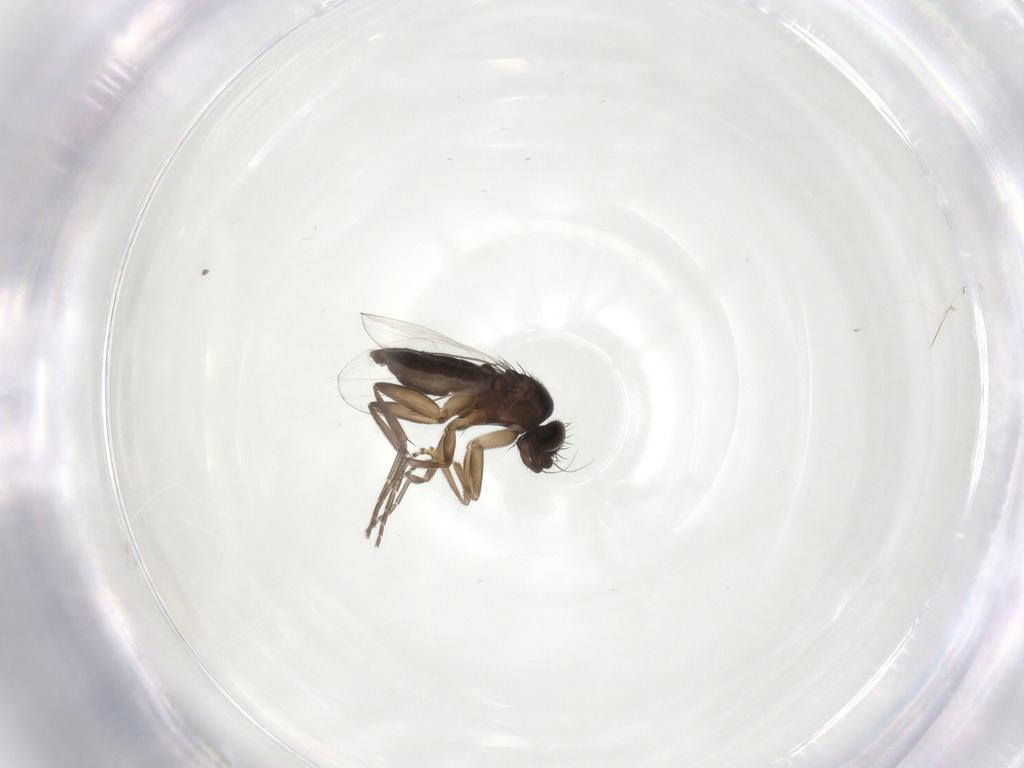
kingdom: Animalia
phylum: Arthropoda
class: Insecta
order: Diptera
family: Phoridae
